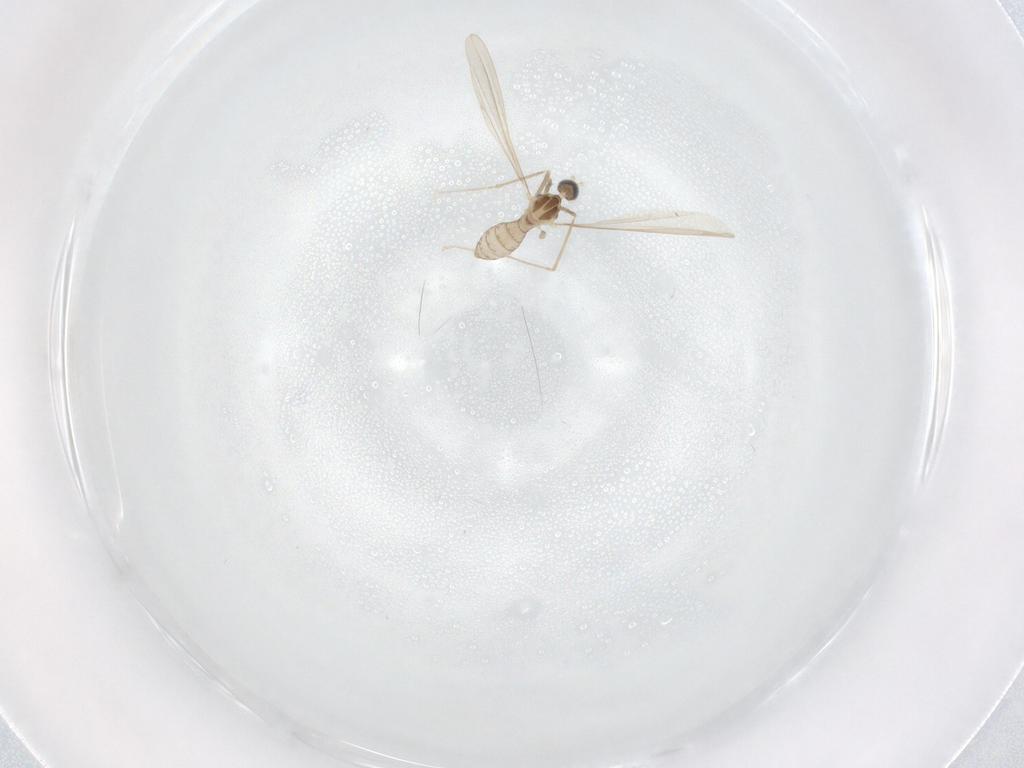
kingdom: Animalia
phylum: Arthropoda
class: Insecta
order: Diptera
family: Cecidomyiidae
